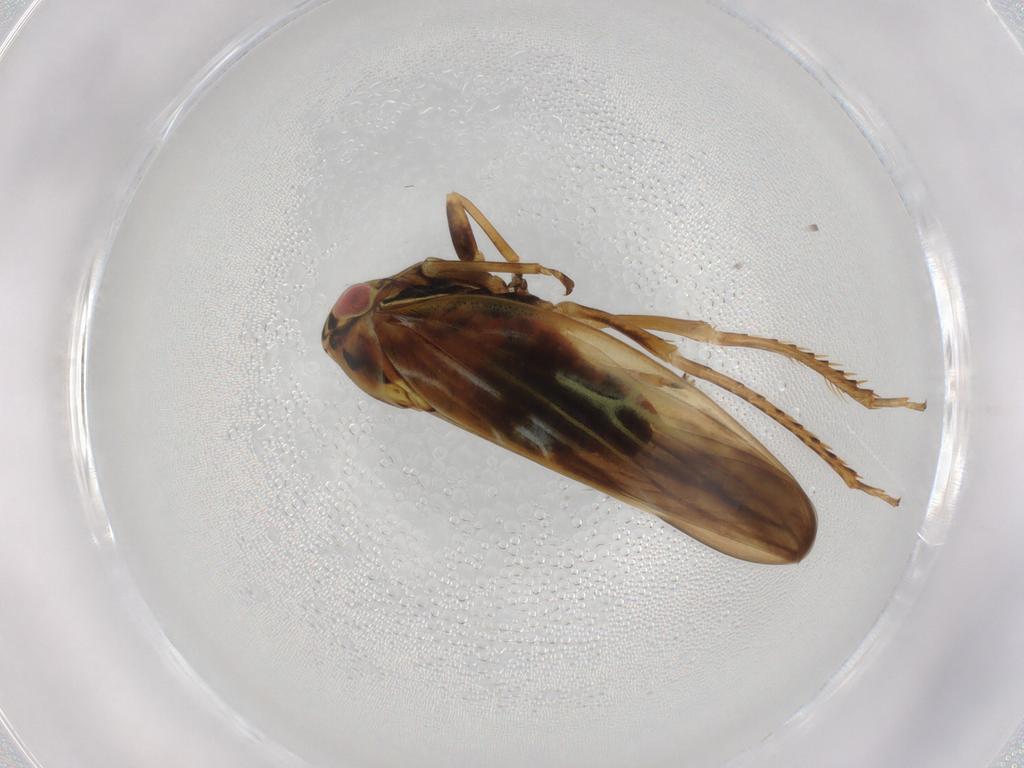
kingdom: Animalia
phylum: Arthropoda
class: Insecta
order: Hemiptera
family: Cicadellidae
